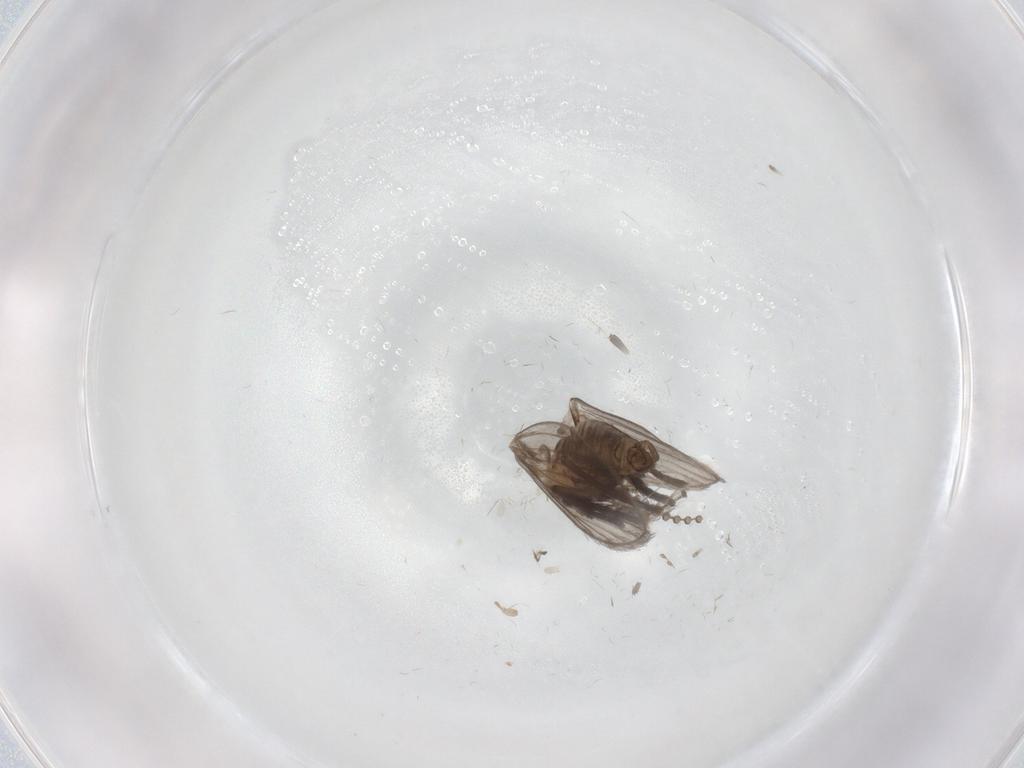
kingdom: Animalia
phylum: Arthropoda
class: Insecta
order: Diptera
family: Psychodidae
